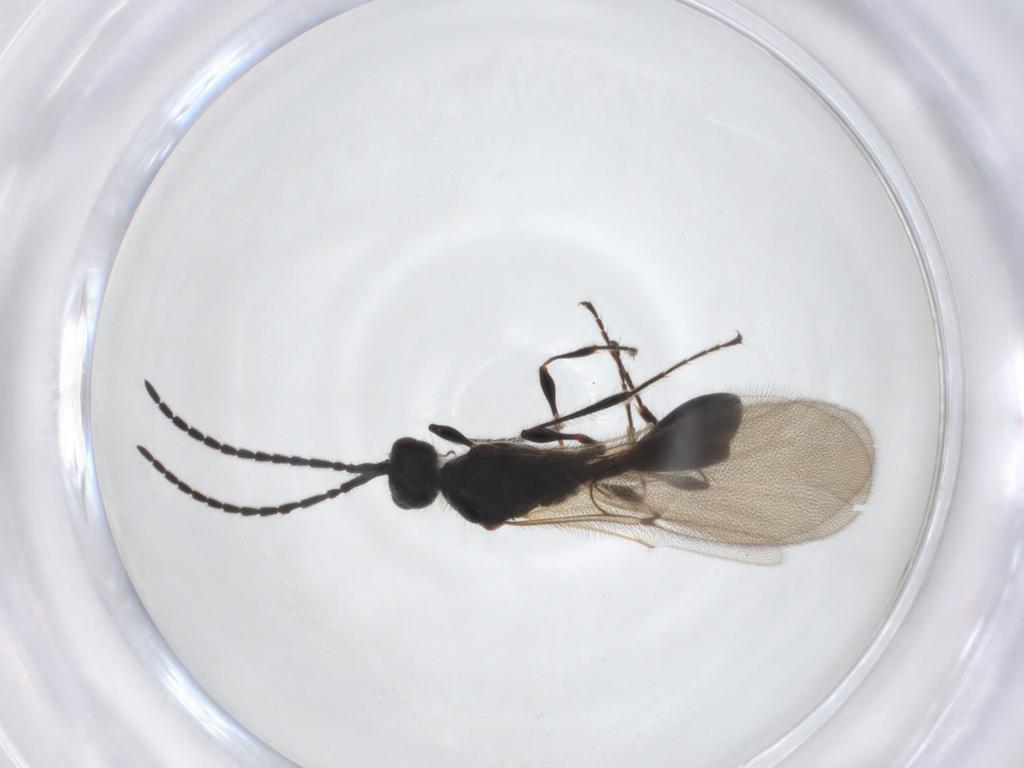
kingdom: Animalia
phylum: Arthropoda
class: Insecta
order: Hymenoptera
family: Diapriidae
